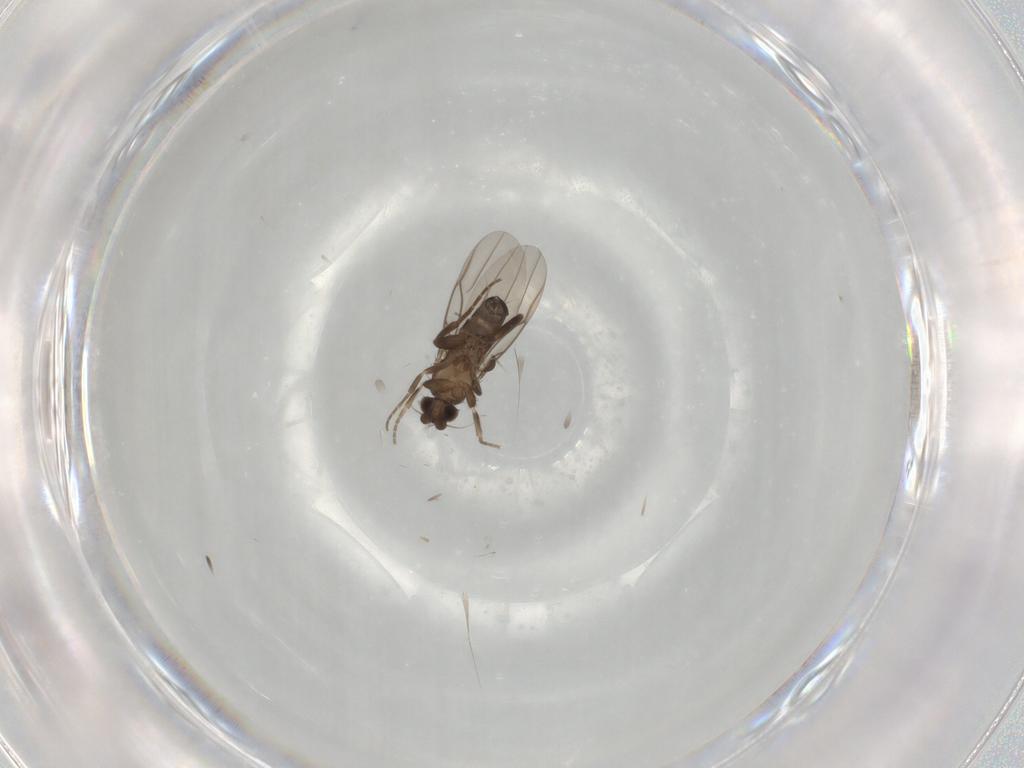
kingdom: Animalia
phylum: Arthropoda
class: Insecta
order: Diptera
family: Phoridae
